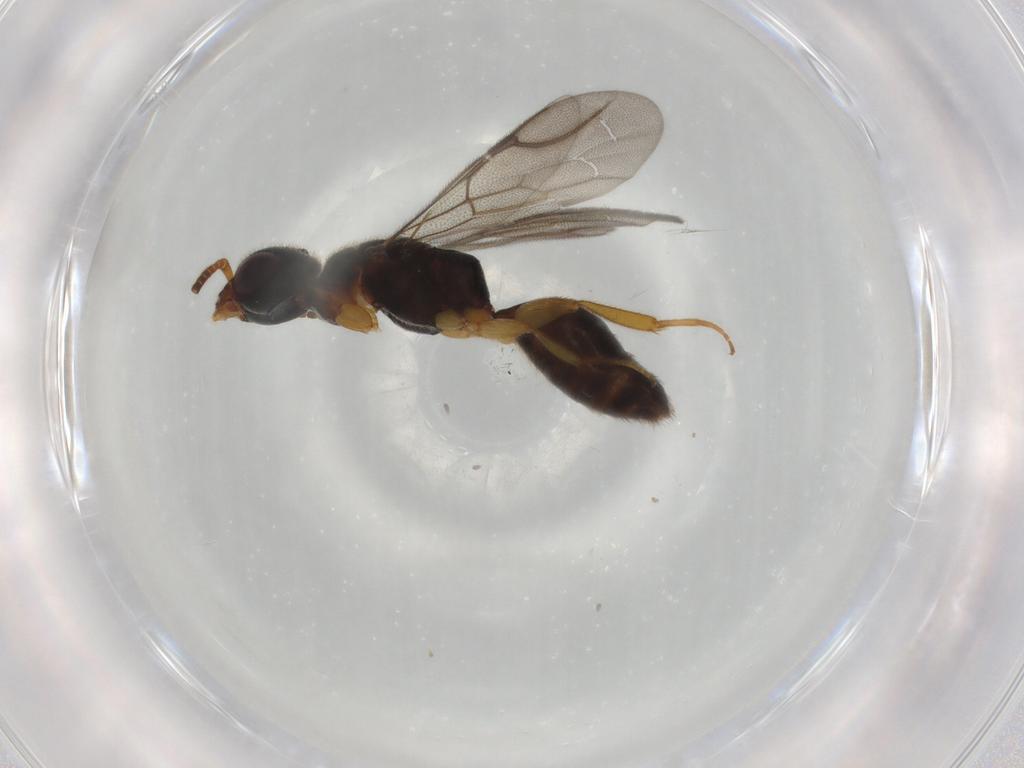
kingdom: Animalia
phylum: Arthropoda
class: Insecta
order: Hymenoptera
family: Bethylidae
